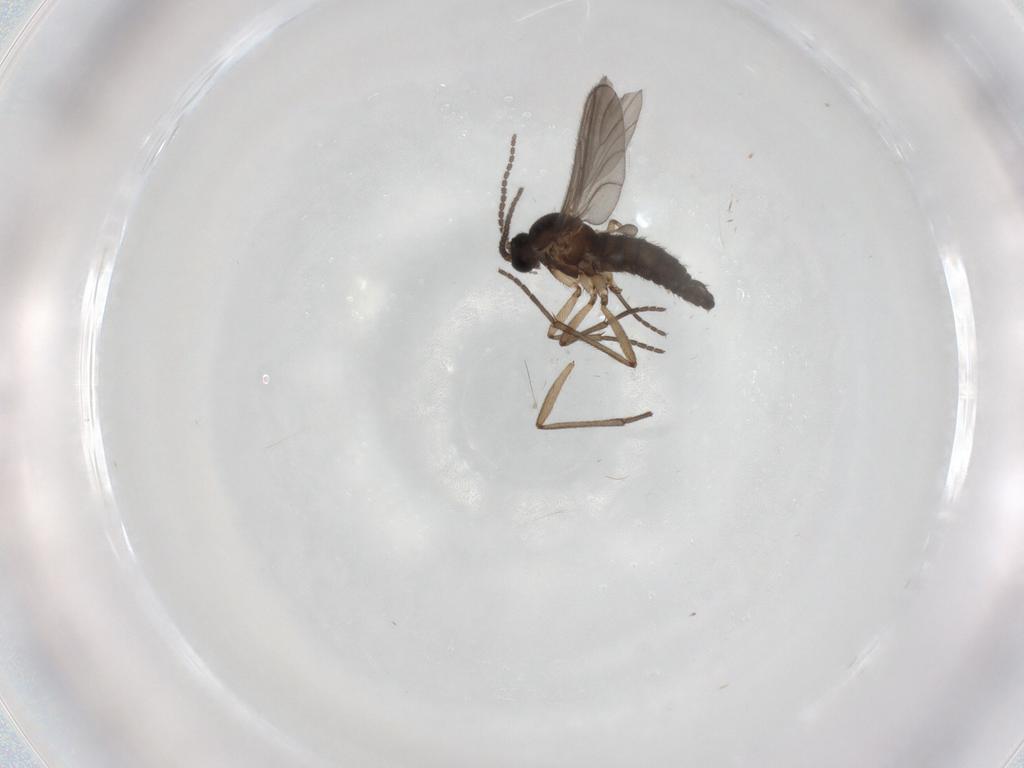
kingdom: Animalia
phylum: Arthropoda
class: Insecta
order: Diptera
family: Sciaridae
